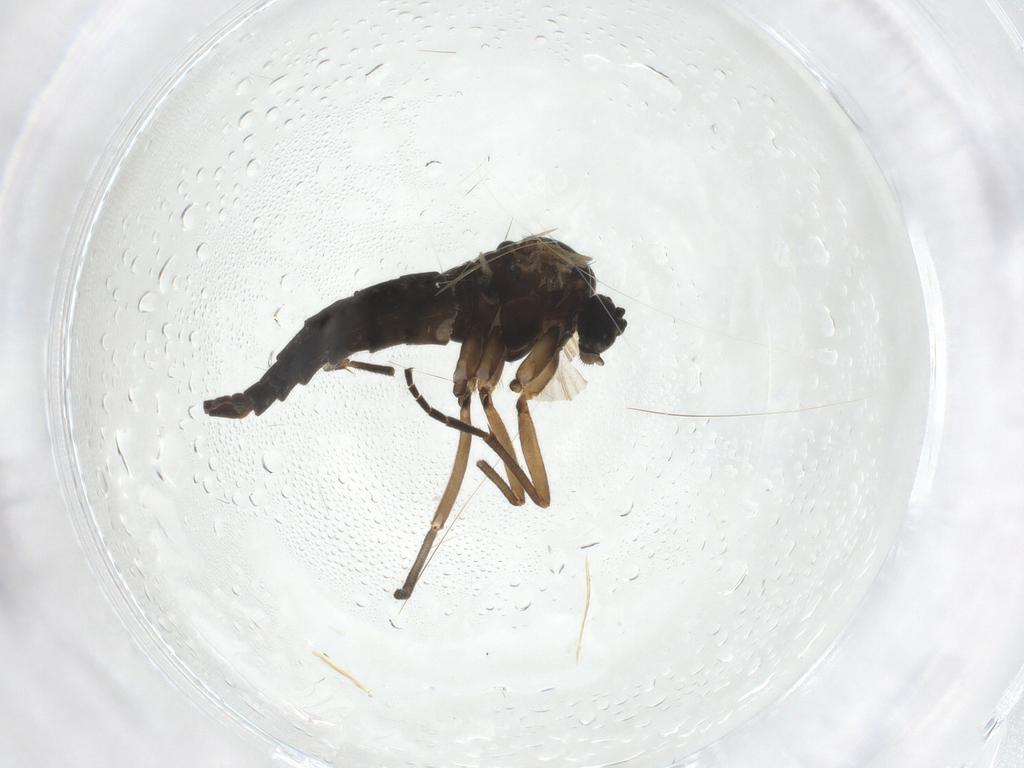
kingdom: Animalia
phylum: Arthropoda
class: Insecta
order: Diptera
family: Sciaridae
